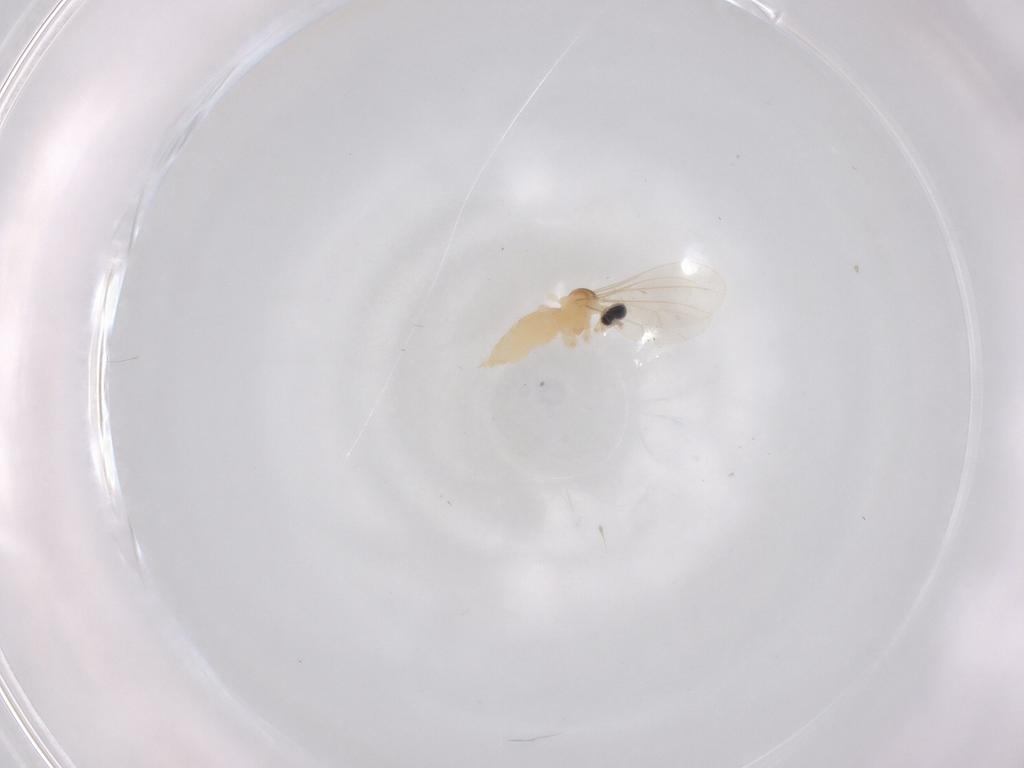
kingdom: Animalia
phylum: Arthropoda
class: Insecta
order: Diptera
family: Cecidomyiidae
